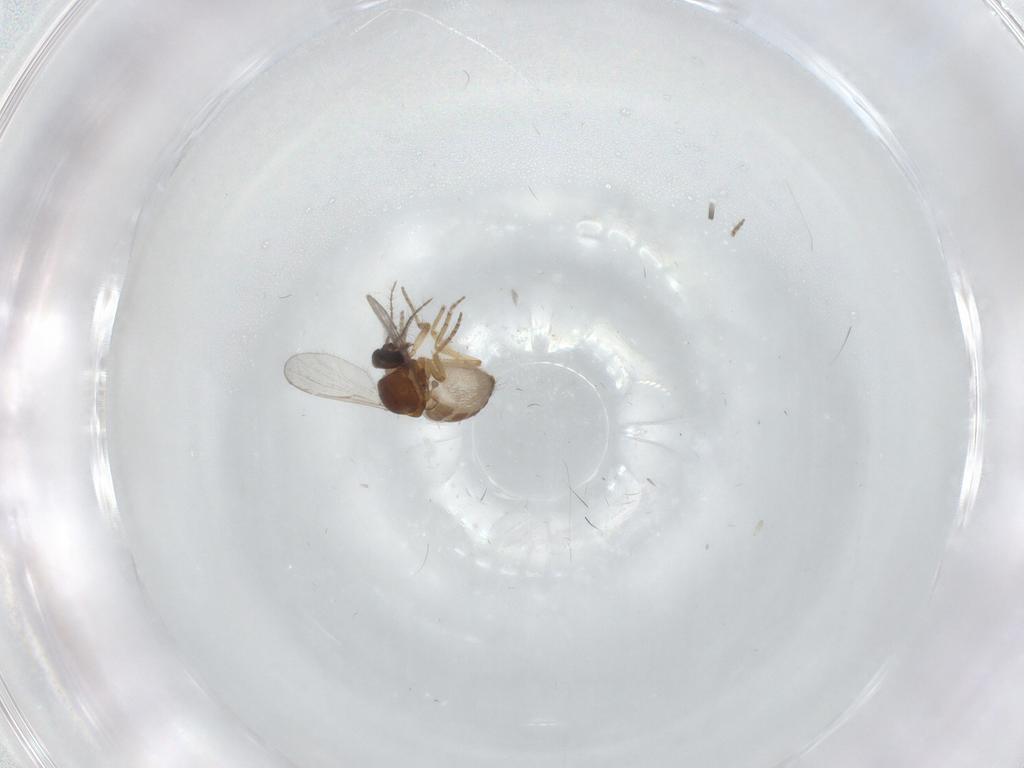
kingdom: Animalia
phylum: Arthropoda
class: Insecta
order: Diptera
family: Ceratopogonidae
